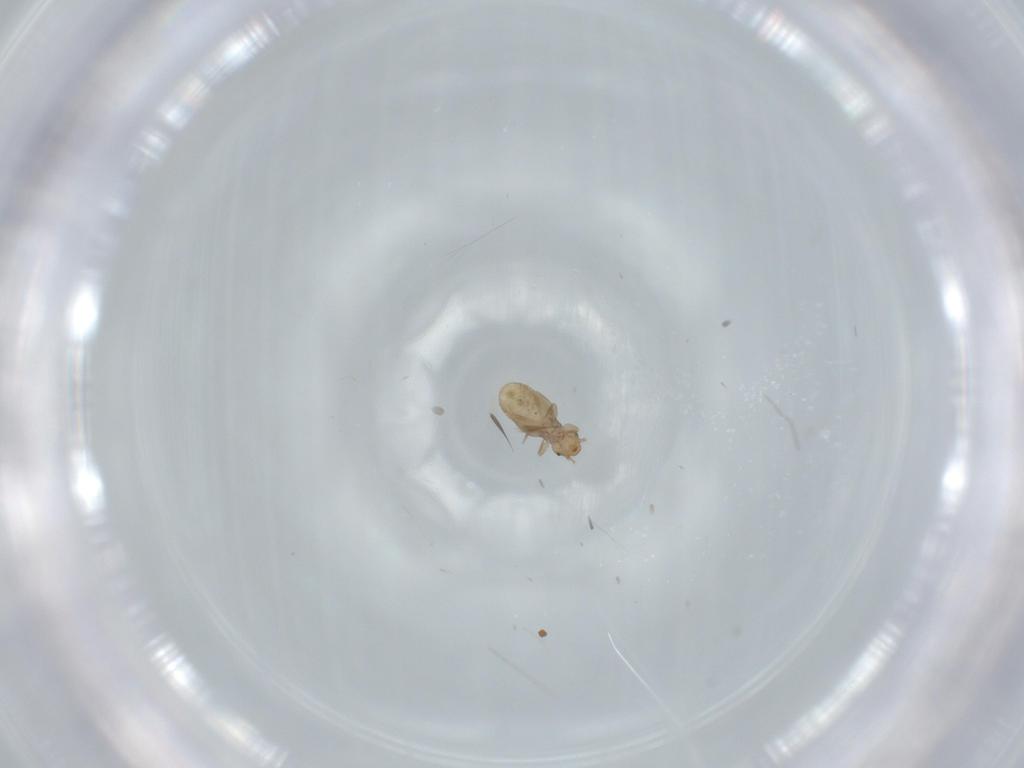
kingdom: Animalia
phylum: Arthropoda
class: Insecta
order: Psocodea
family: Liposcelididae
